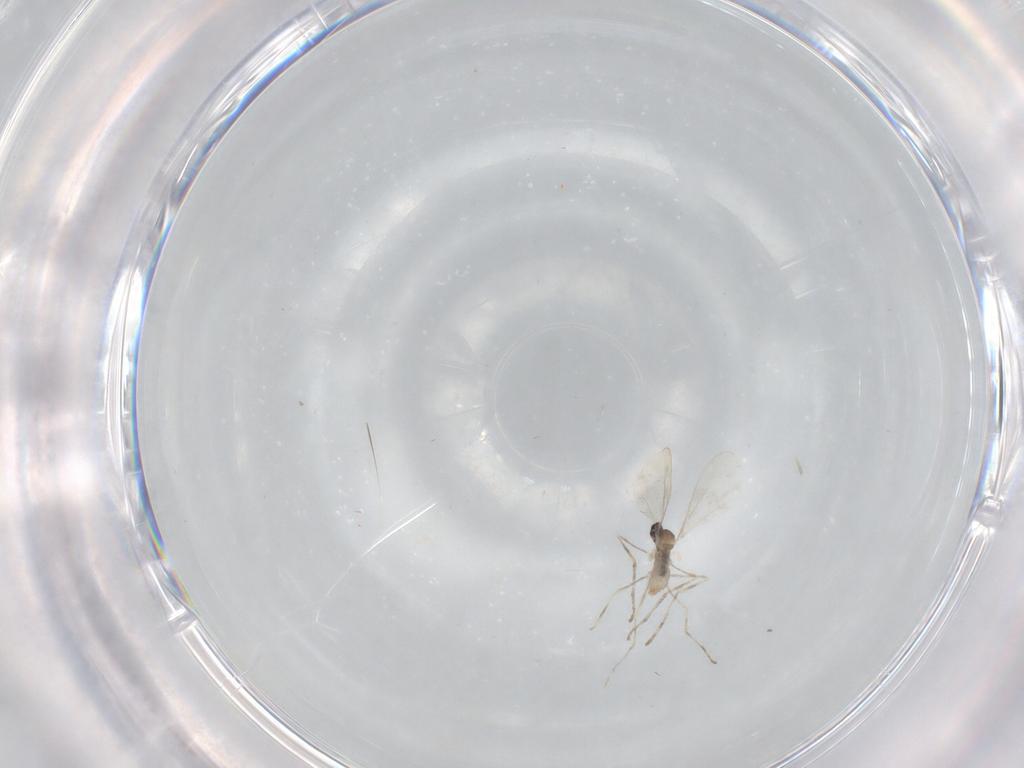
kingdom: Animalia
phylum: Arthropoda
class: Insecta
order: Diptera
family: Cecidomyiidae
